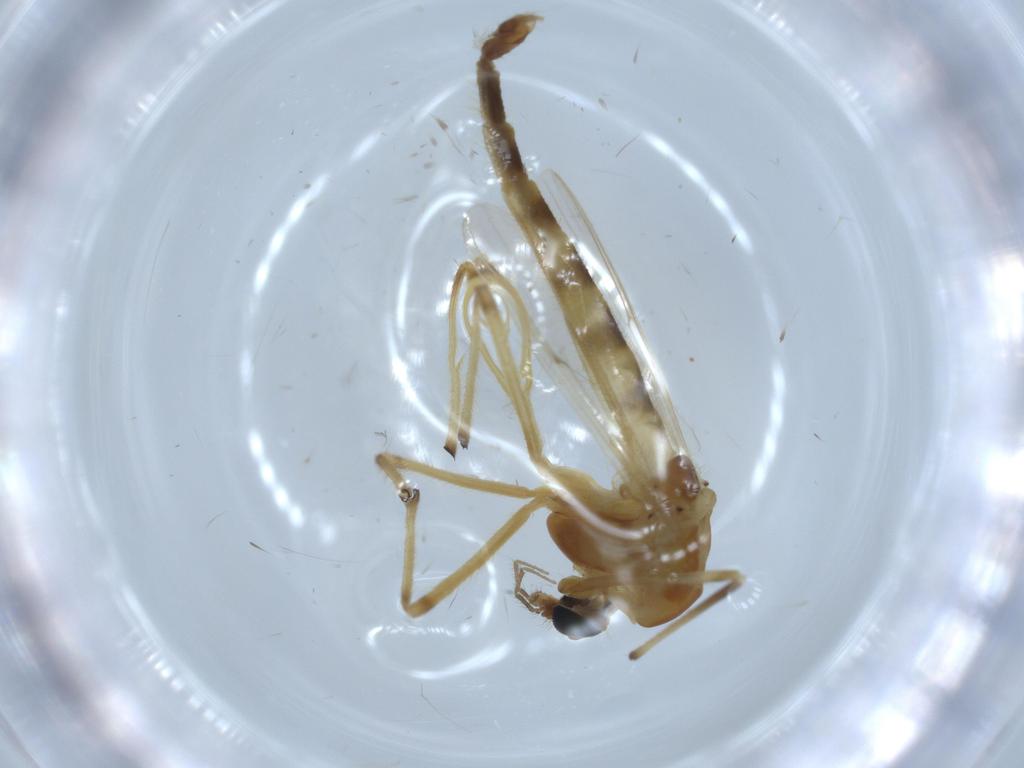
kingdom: Animalia
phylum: Arthropoda
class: Insecta
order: Diptera
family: Chironomidae
